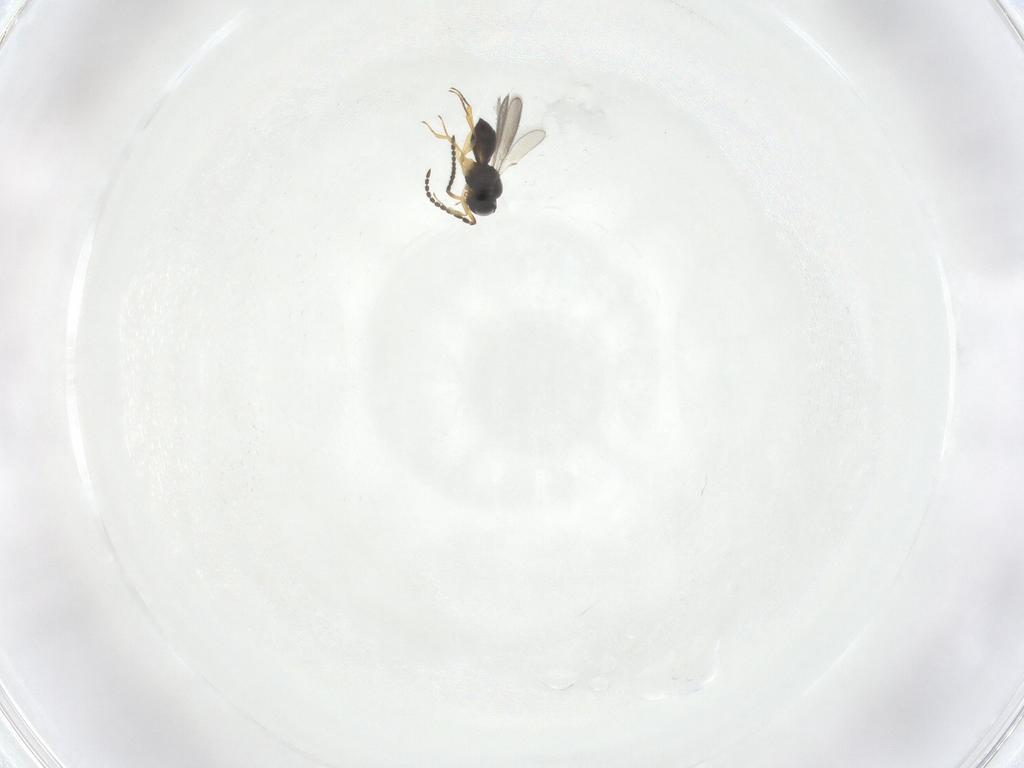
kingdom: Animalia
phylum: Arthropoda
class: Insecta
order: Hymenoptera
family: Scelionidae
